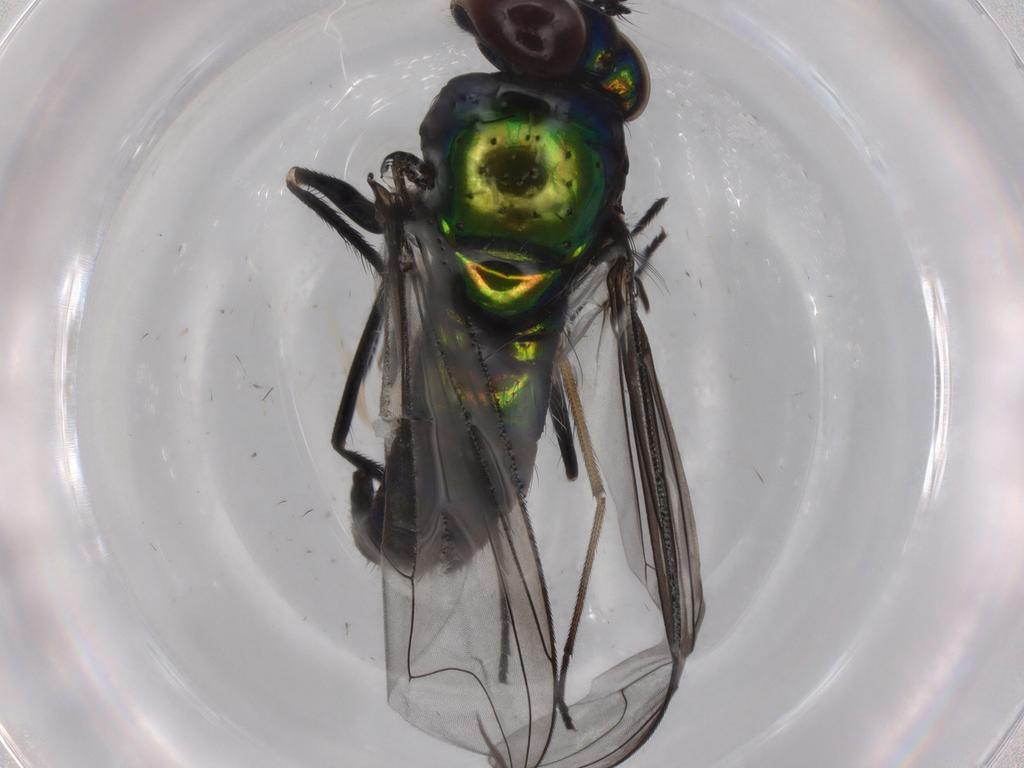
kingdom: Animalia
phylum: Arthropoda
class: Insecta
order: Diptera
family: Dolichopodidae
